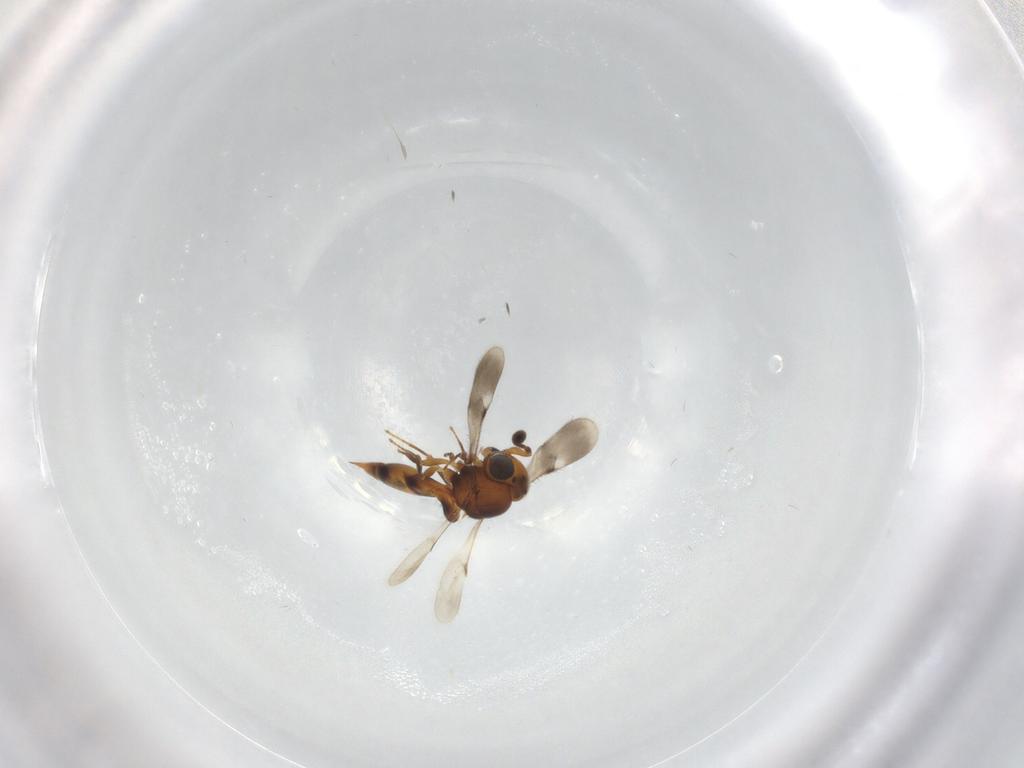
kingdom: Animalia
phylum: Arthropoda
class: Insecta
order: Hymenoptera
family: Scelionidae
